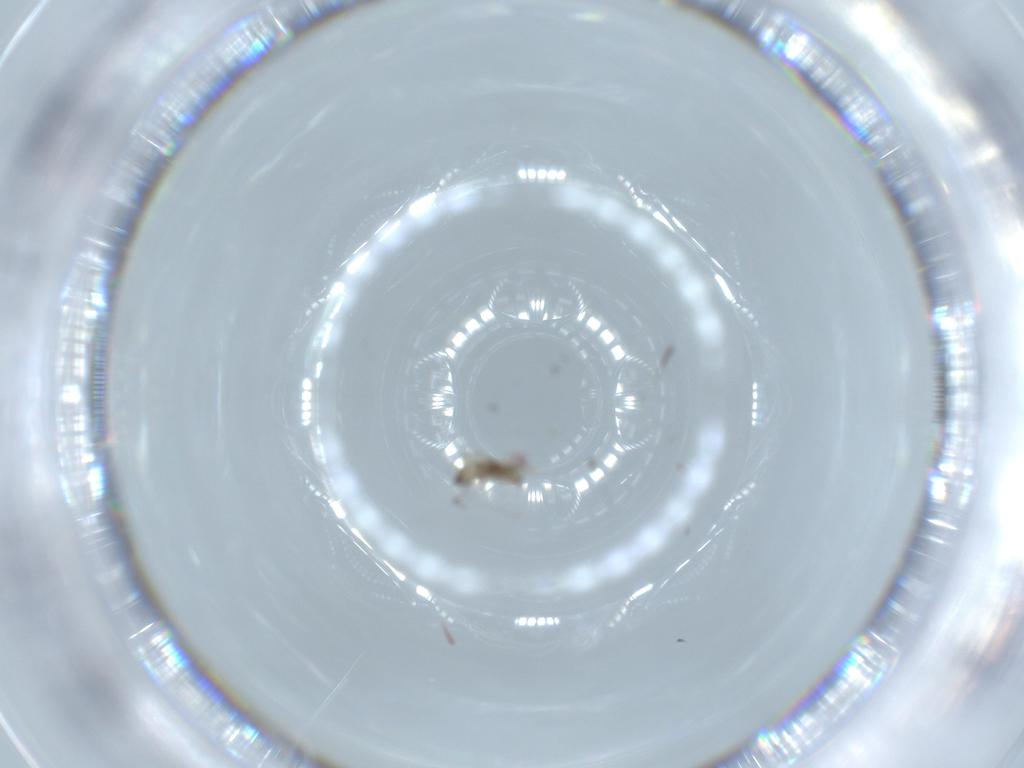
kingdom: Animalia
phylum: Arthropoda
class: Insecta
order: Diptera
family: Cecidomyiidae
